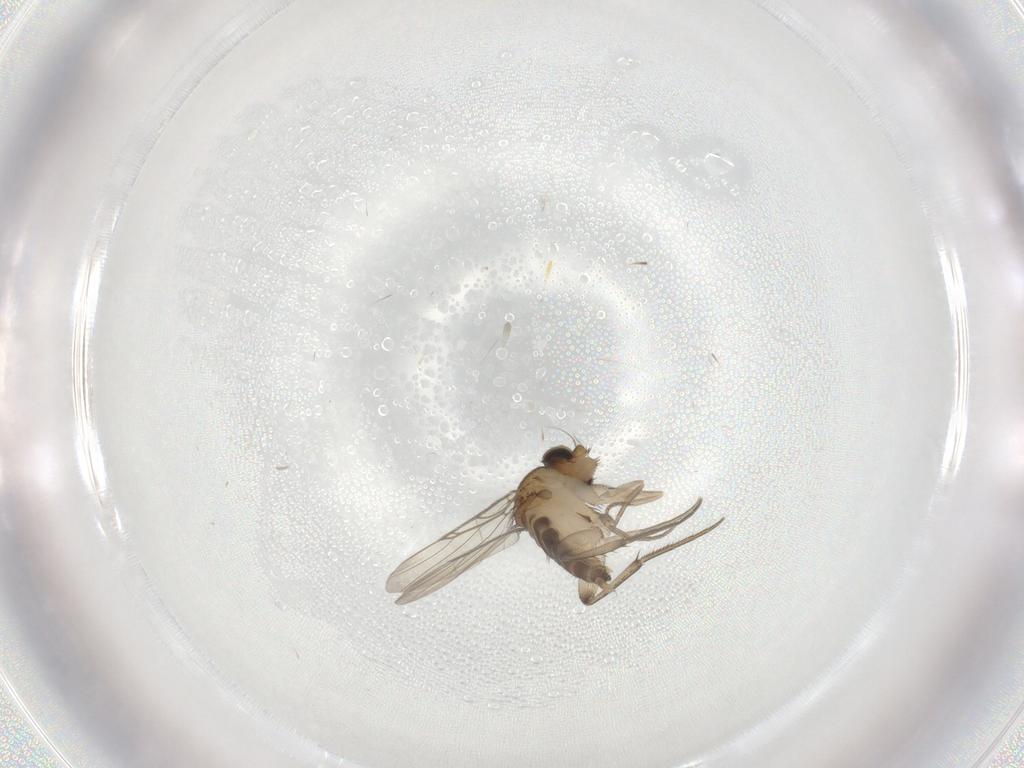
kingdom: Animalia
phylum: Arthropoda
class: Insecta
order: Diptera
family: Phoridae
